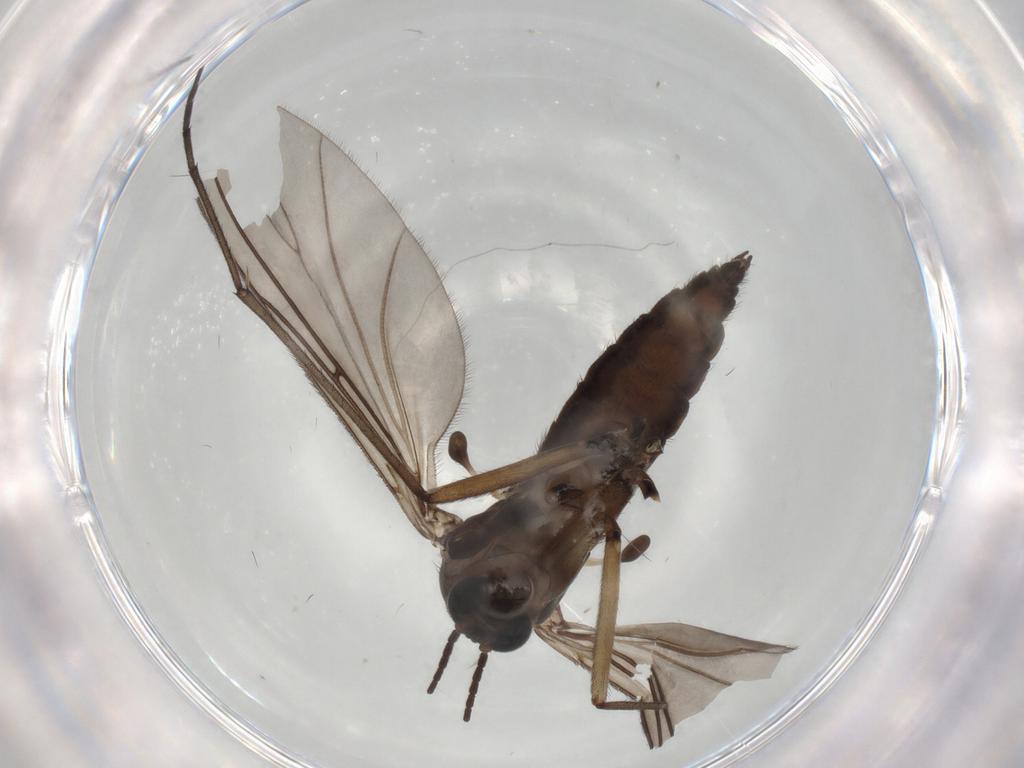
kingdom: Animalia
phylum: Arthropoda
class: Insecta
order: Diptera
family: Sciaridae
